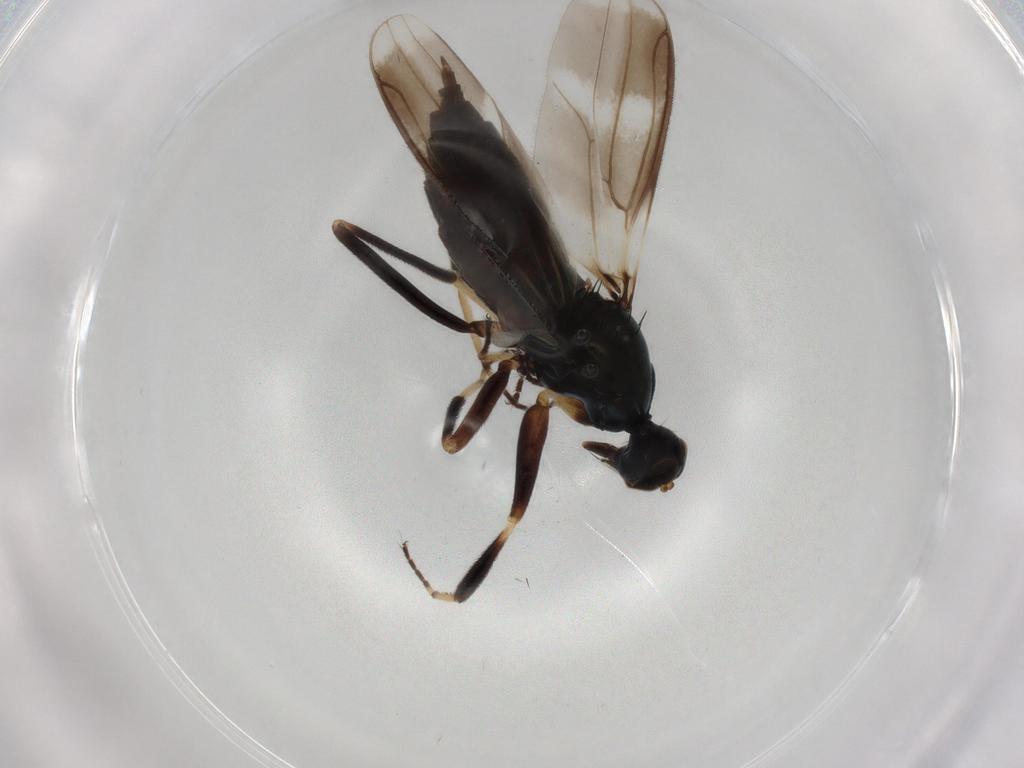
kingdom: Animalia
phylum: Arthropoda
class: Insecta
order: Diptera
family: Hybotidae
